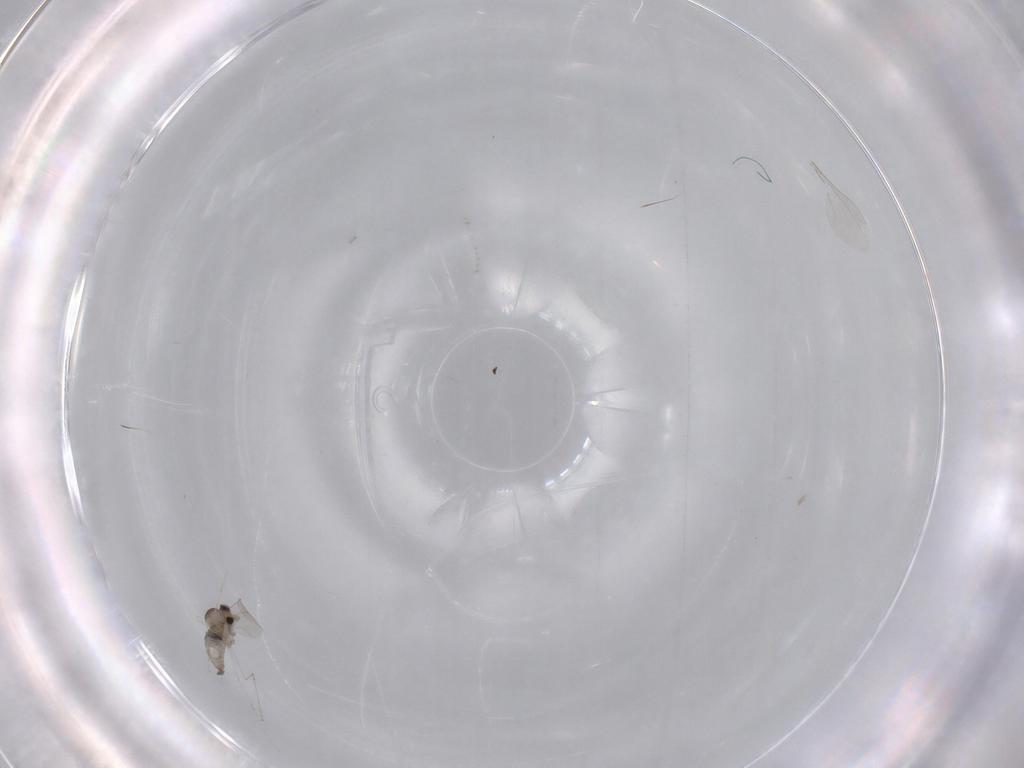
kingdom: Animalia
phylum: Arthropoda
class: Insecta
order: Diptera
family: Cecidomyiidae
